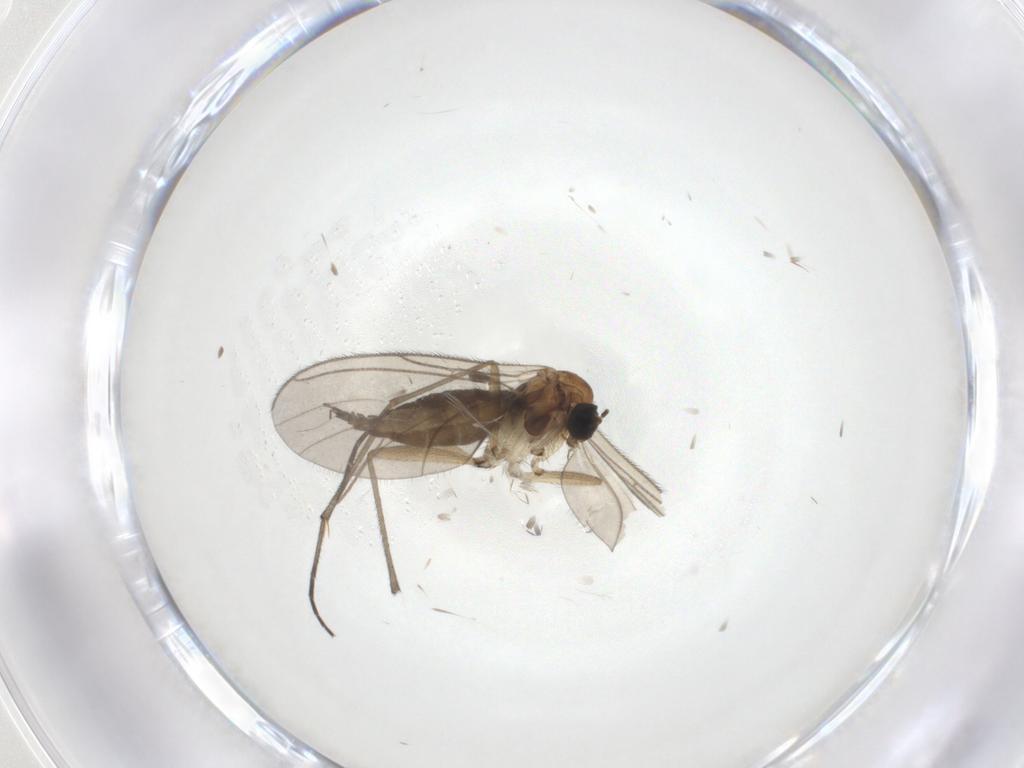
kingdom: Animalia
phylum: Arthropoda
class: Insecta
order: Diptera
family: Sciaridae
